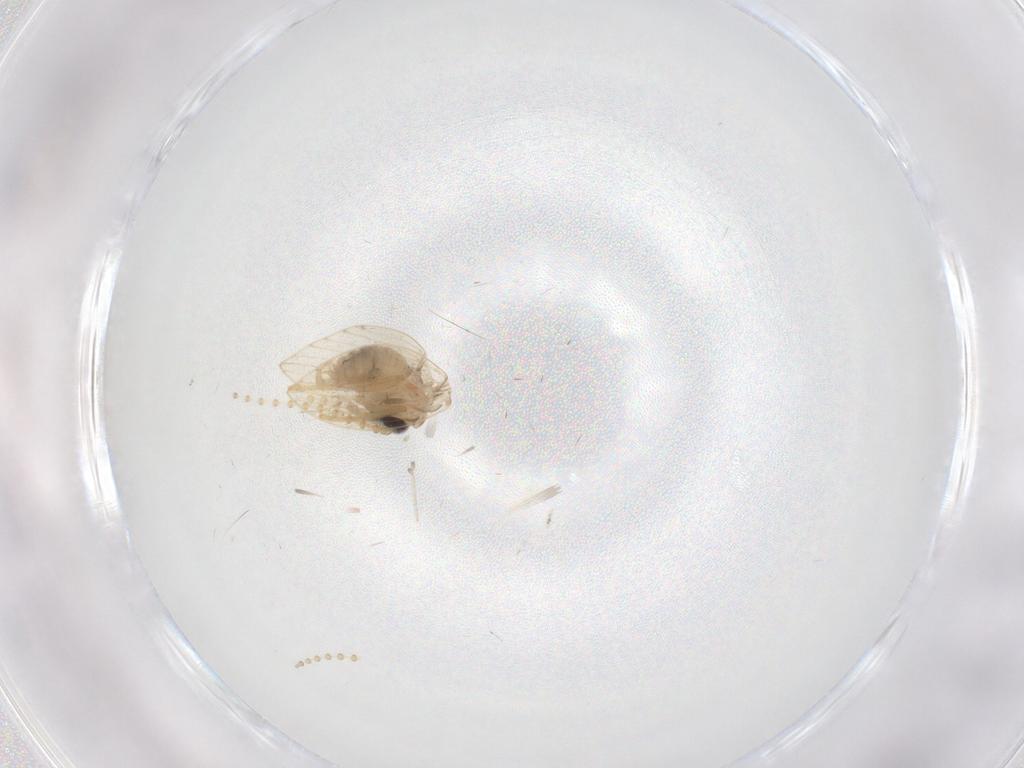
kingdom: Animalia
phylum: Arthropoda
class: Insecta
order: Diptera
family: Psychodidae
